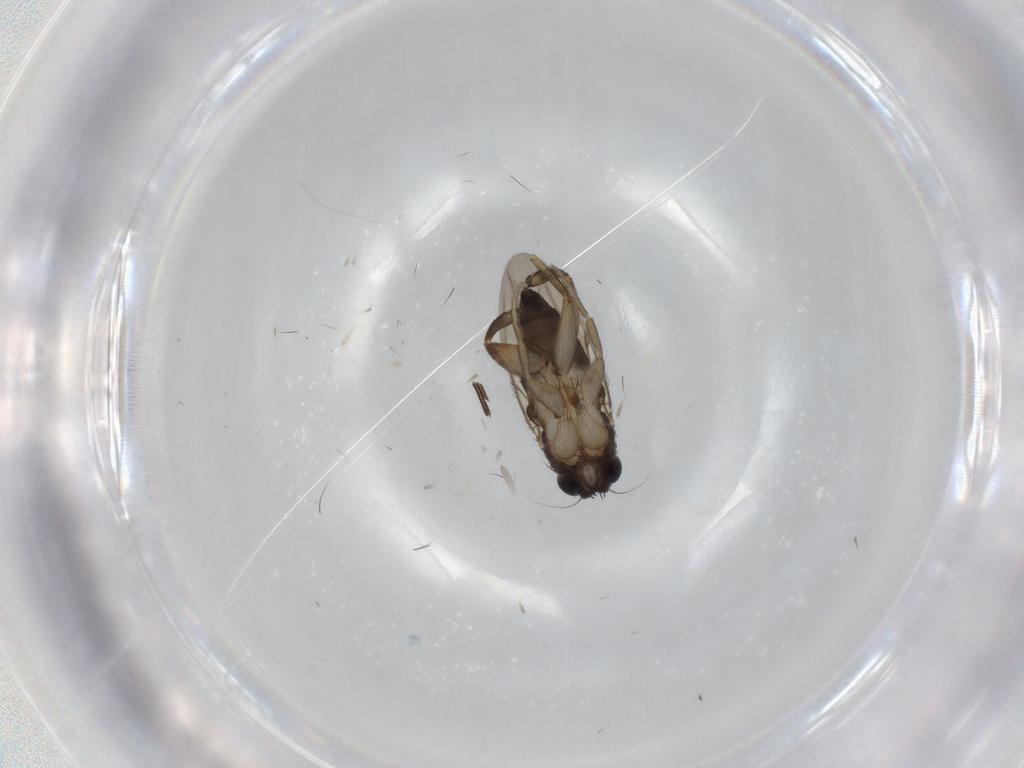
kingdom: Animalia
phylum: Arthropoda
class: Insecta
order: Diptera
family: Phoridae
